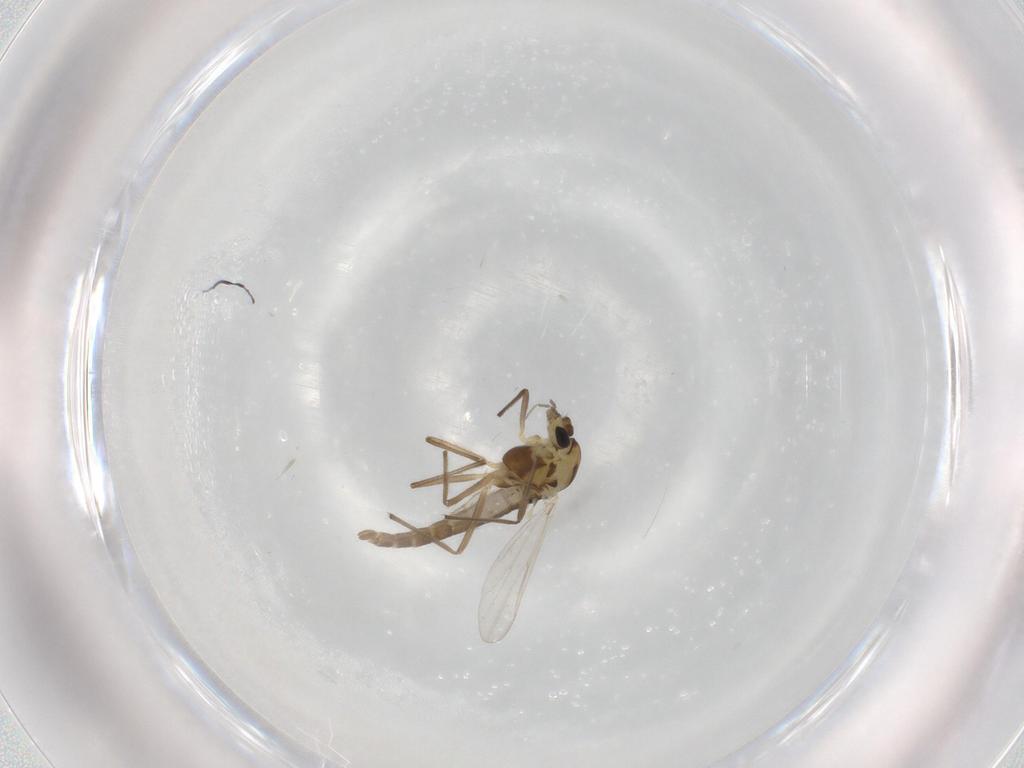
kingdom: Animalia
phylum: Arthropoda
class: Insecta
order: Diptera
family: Chironomidae
